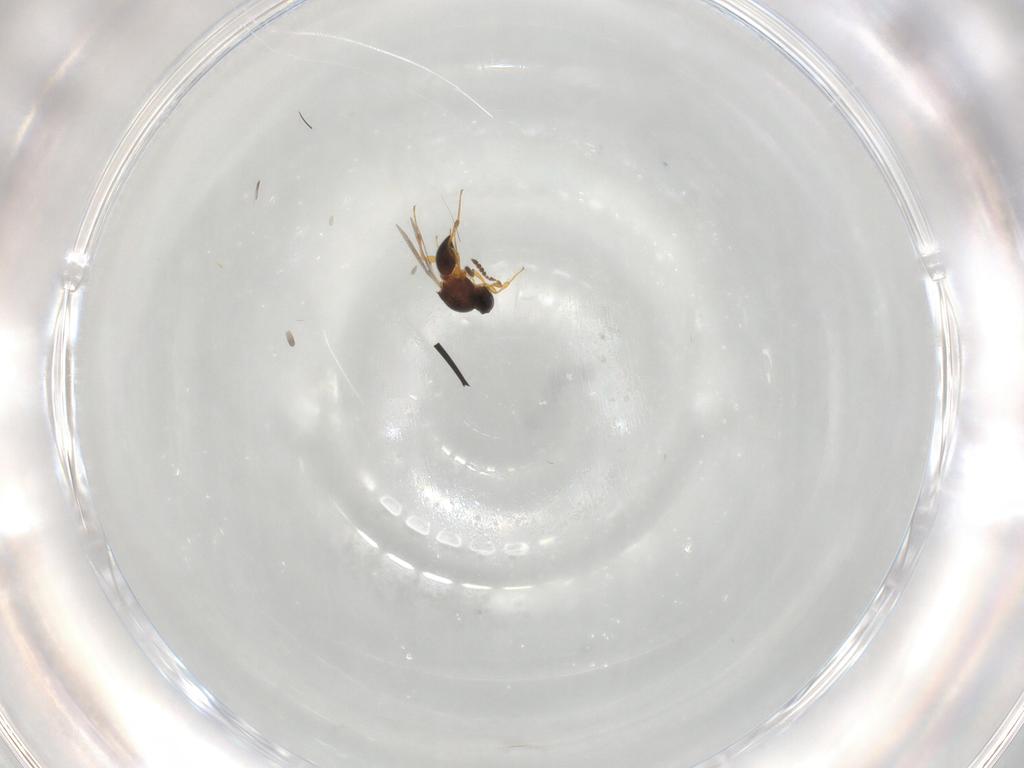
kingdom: Animalia
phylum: Arthropoda
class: Insecta
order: Hymenoptera
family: Platygastridae
